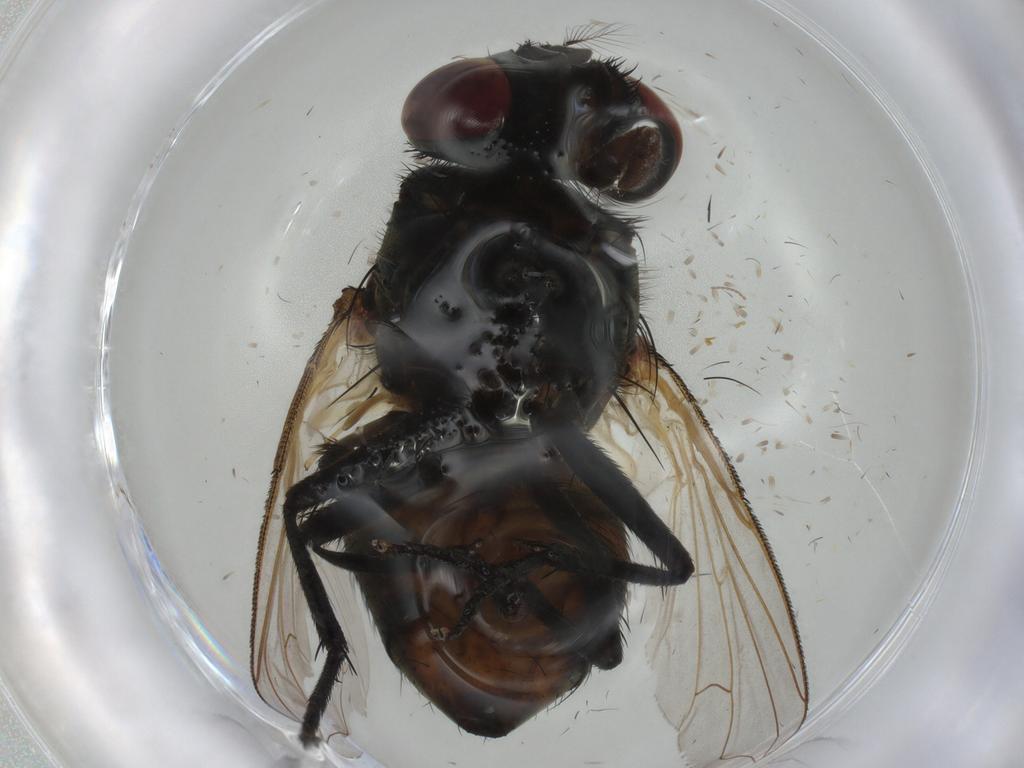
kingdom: Animalia
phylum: Arthropoda
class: Insecta
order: Diptera
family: Muscidae
